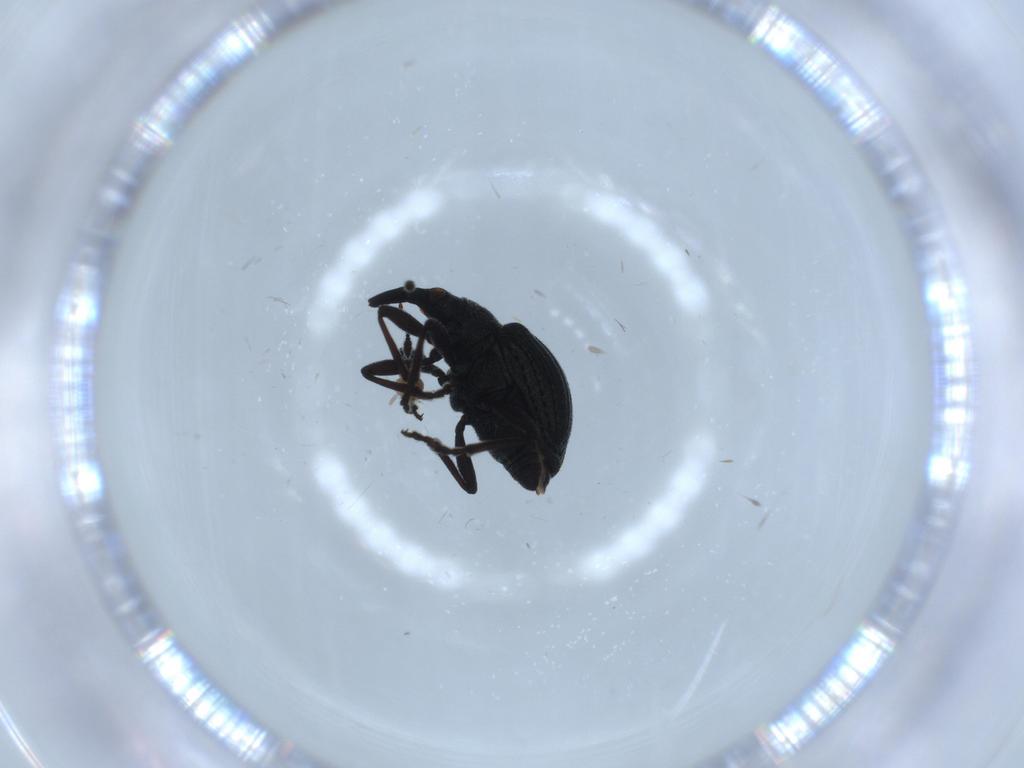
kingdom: Animalia
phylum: Arthropoda
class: Insecta
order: Coleoptera
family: Brentidae
